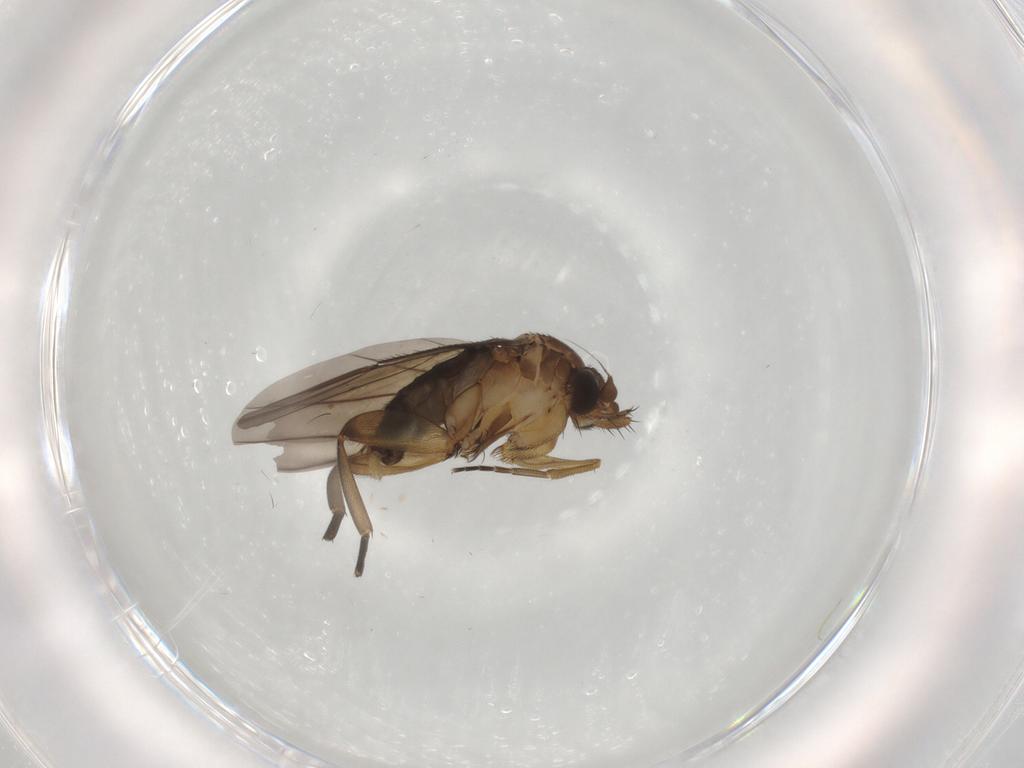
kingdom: Animalia
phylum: Arthropoda
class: Insecta
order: Diptera
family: Phoridae
